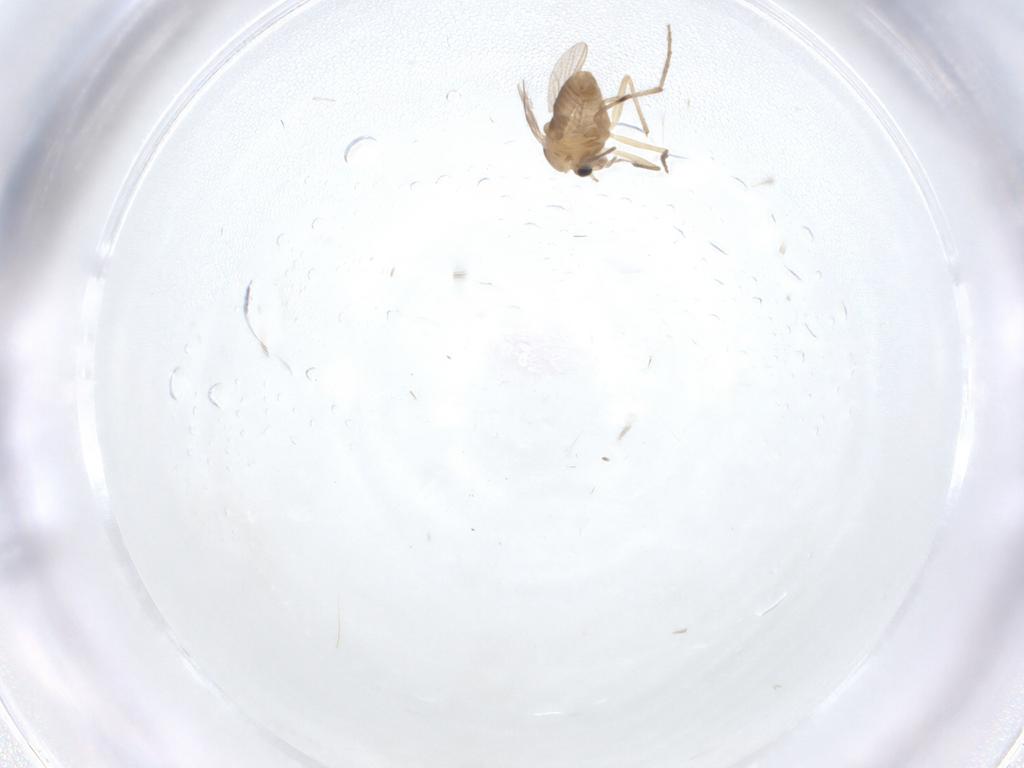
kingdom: Animalia
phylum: Arthropoda
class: Insecta
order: Diptera
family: Chironomidae
